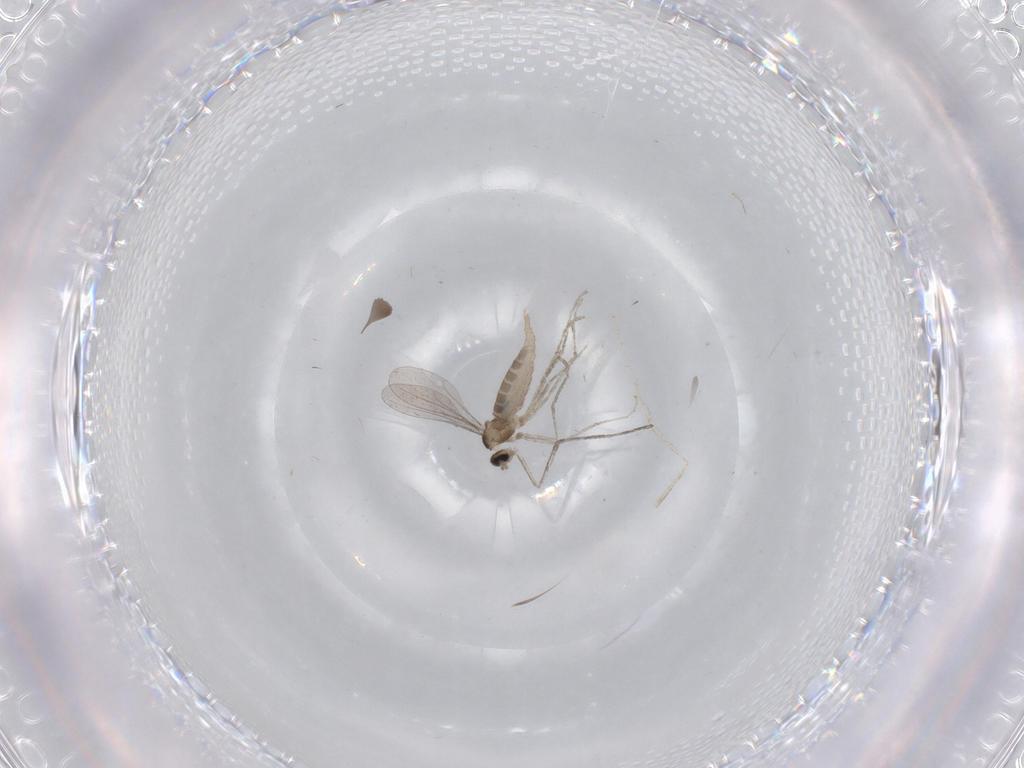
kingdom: Animalia
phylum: Arthropoda
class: Insecta
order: Diptera
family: Cecidomyiidae
